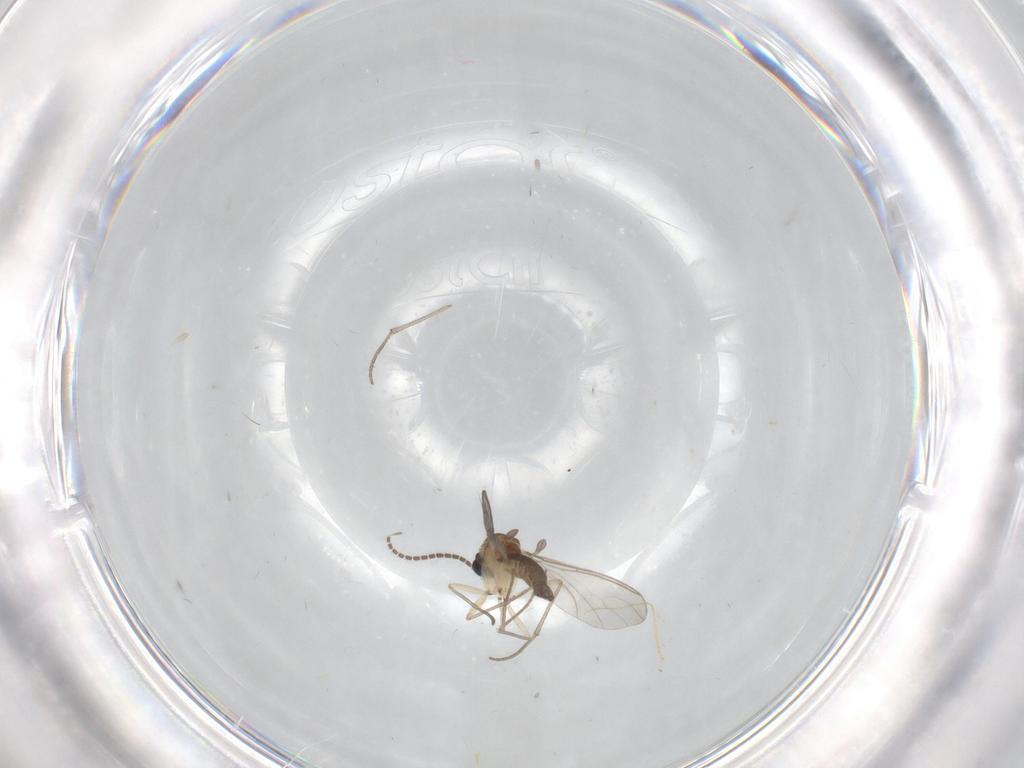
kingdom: Animalia
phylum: Arthropoda
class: Insecta
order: Diptera
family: Sciaridae
